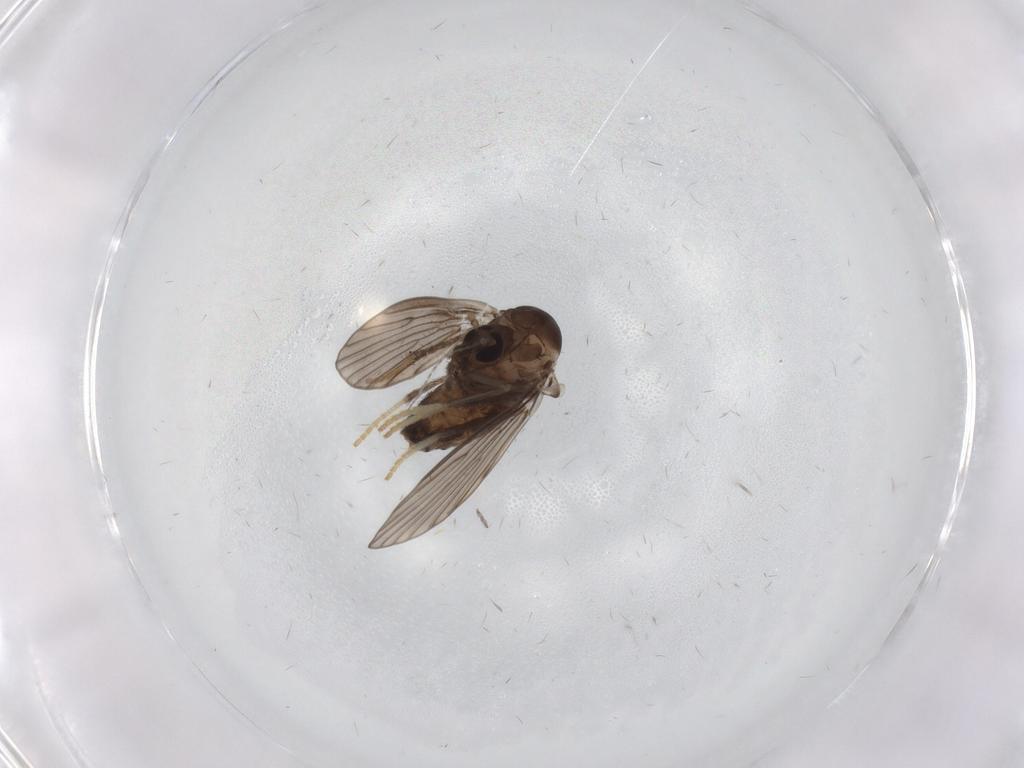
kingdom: Animalia
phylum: Arthropoda
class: Insecta
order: Diptera
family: Psychodidae
